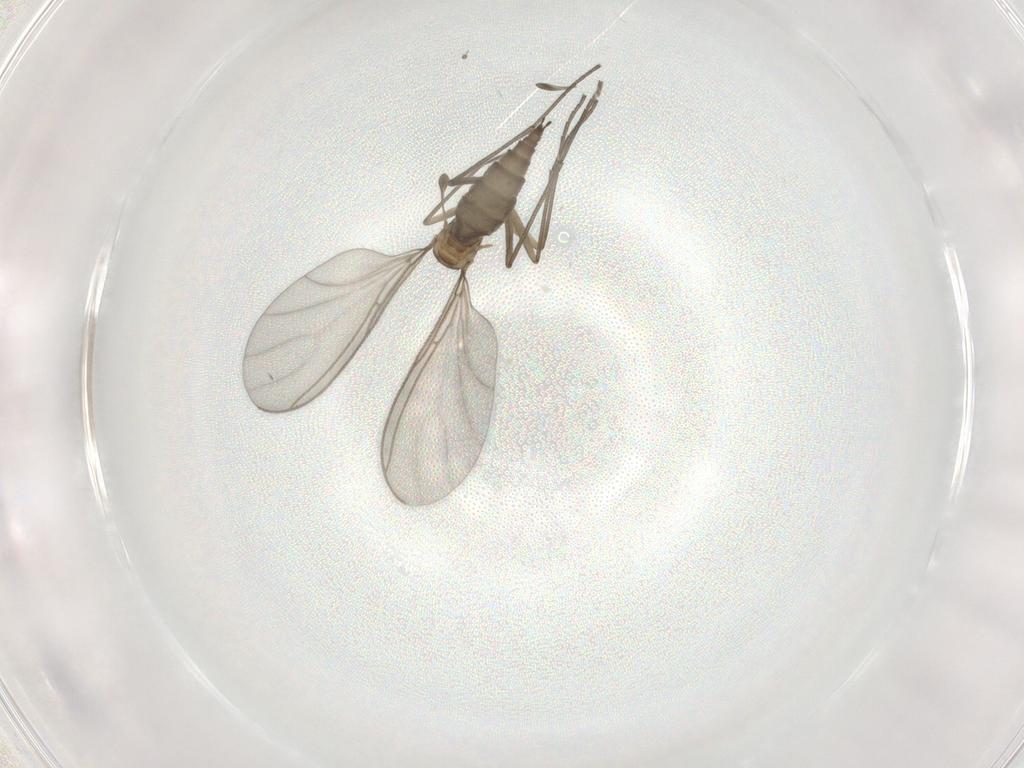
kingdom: Animalia
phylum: Arthropoda
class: Insecta
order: Diptera
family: Sciaridae
